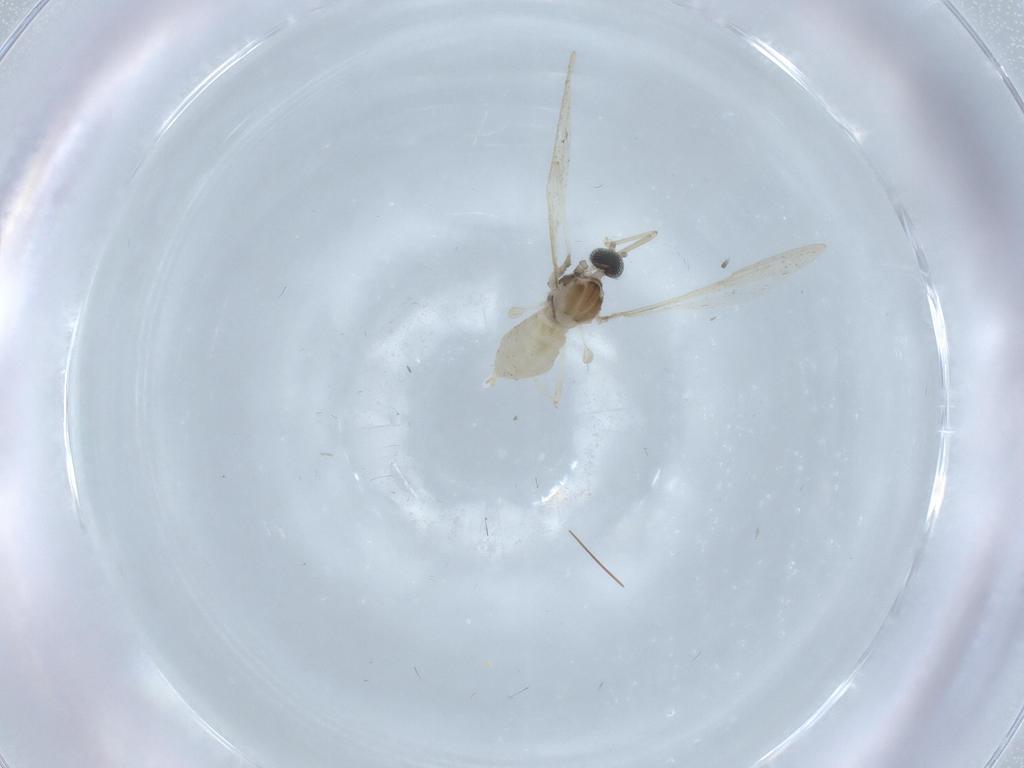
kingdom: Animalia
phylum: Arthropoda
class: Insecta
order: Diptera
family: Cecidomyiidae
